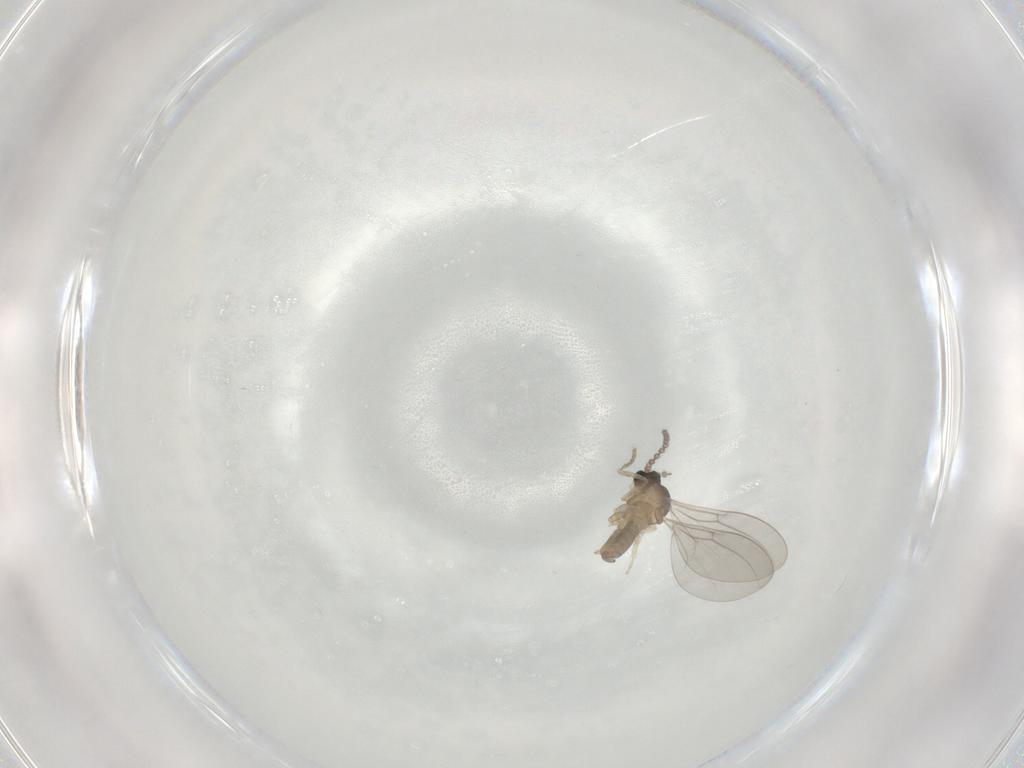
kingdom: Animalia
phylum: Arthropoda
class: Insecta
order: Diptera
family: Cecidomyiidae
